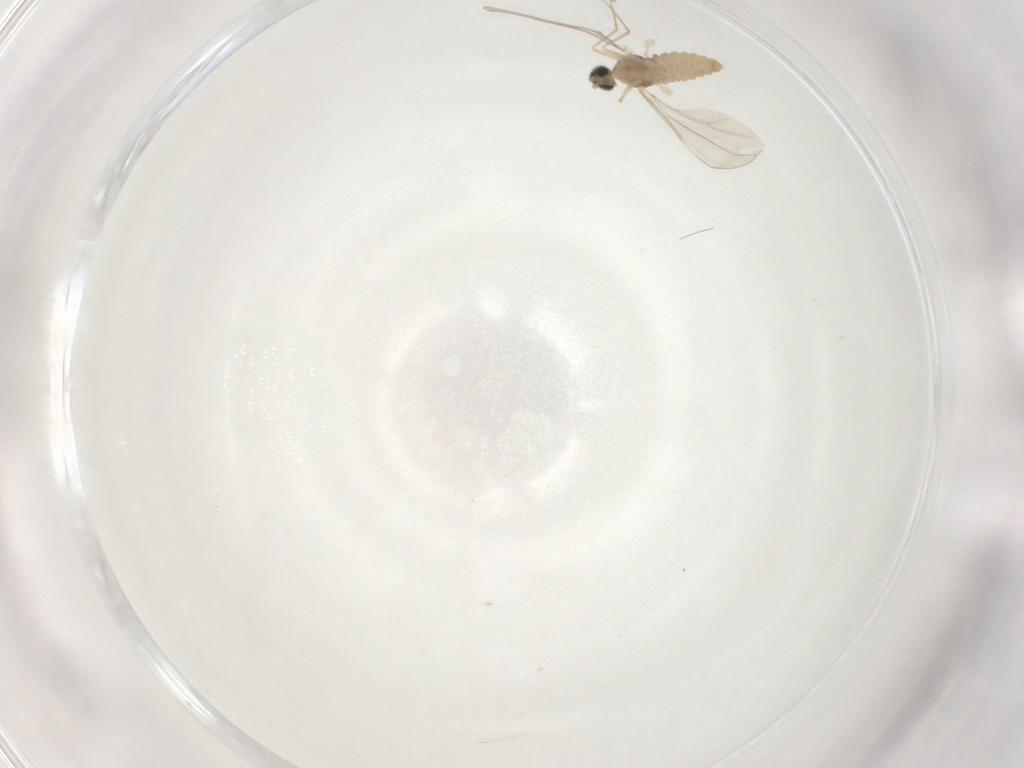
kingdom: Animalia
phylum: Arthropoda
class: Insecta
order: Diptera
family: Cecidomyiidae
